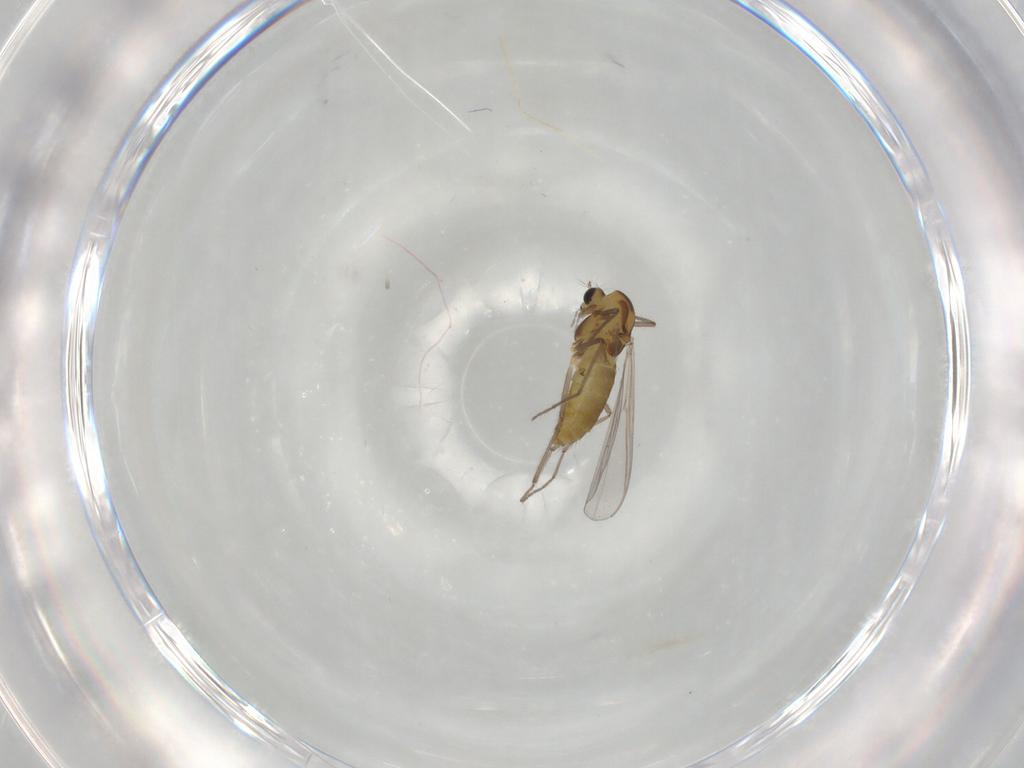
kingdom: Animalia
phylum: Arthropoda
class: Insecta
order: Diptera
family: Chironomidae
